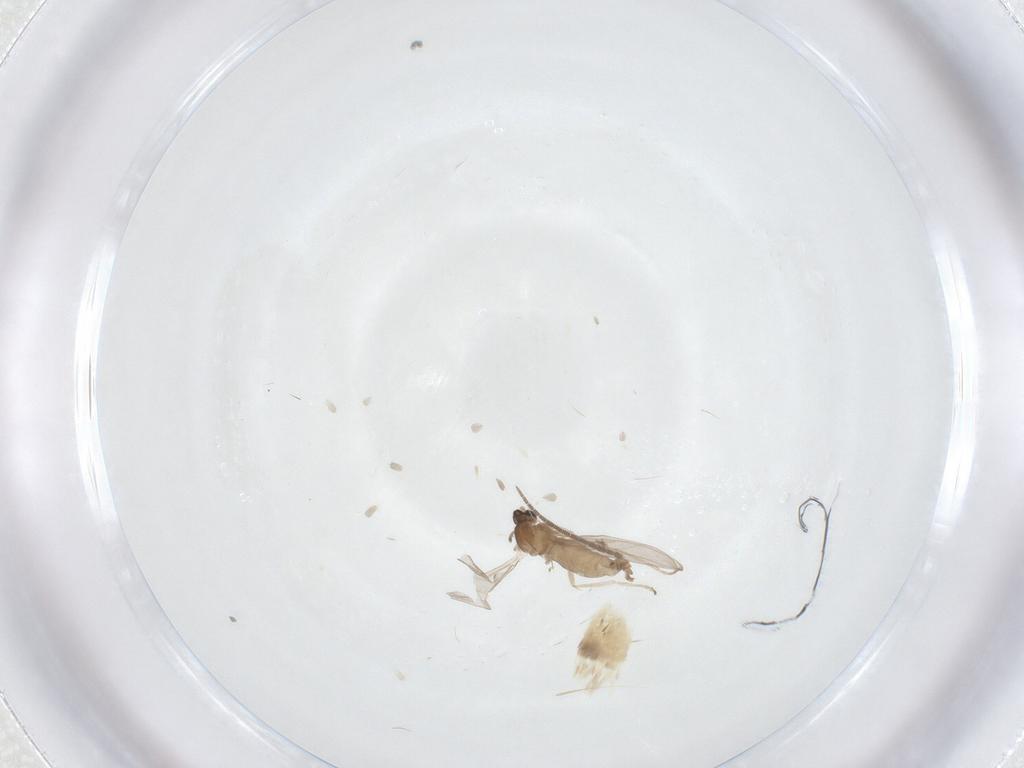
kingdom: Animalia
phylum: Arthropoda
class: Insecta
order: Diptera
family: Cecidomyiidae
